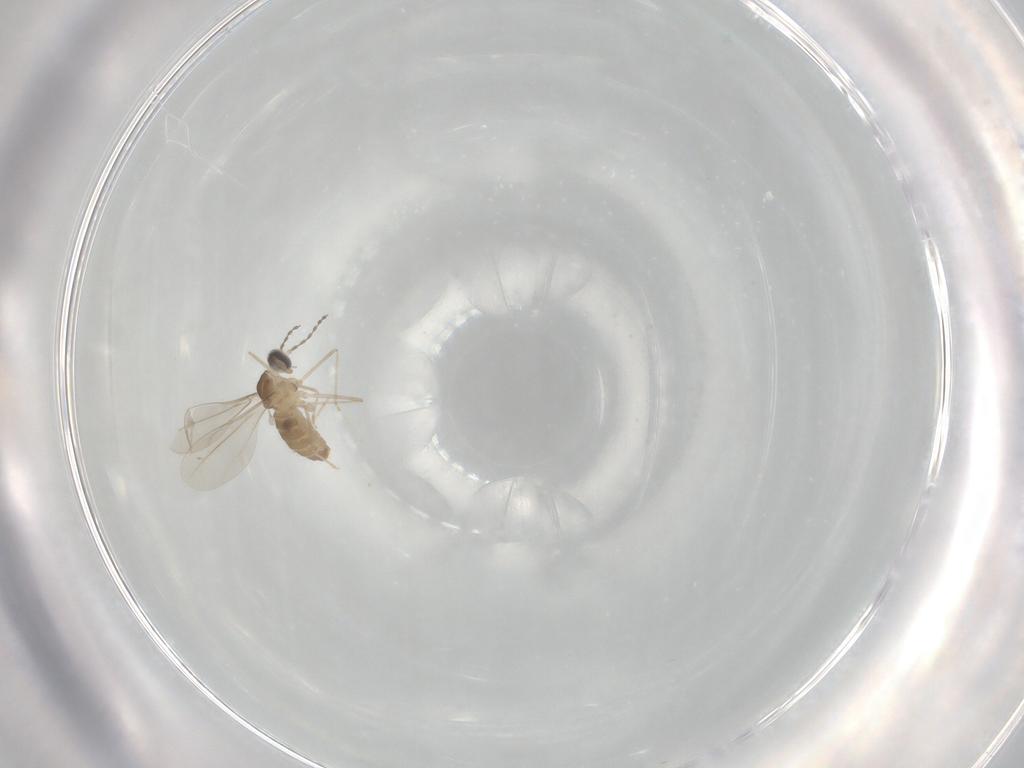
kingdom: Animalia
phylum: Arthropoda
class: Insecta
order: Diptera
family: Cecidomyiidae
